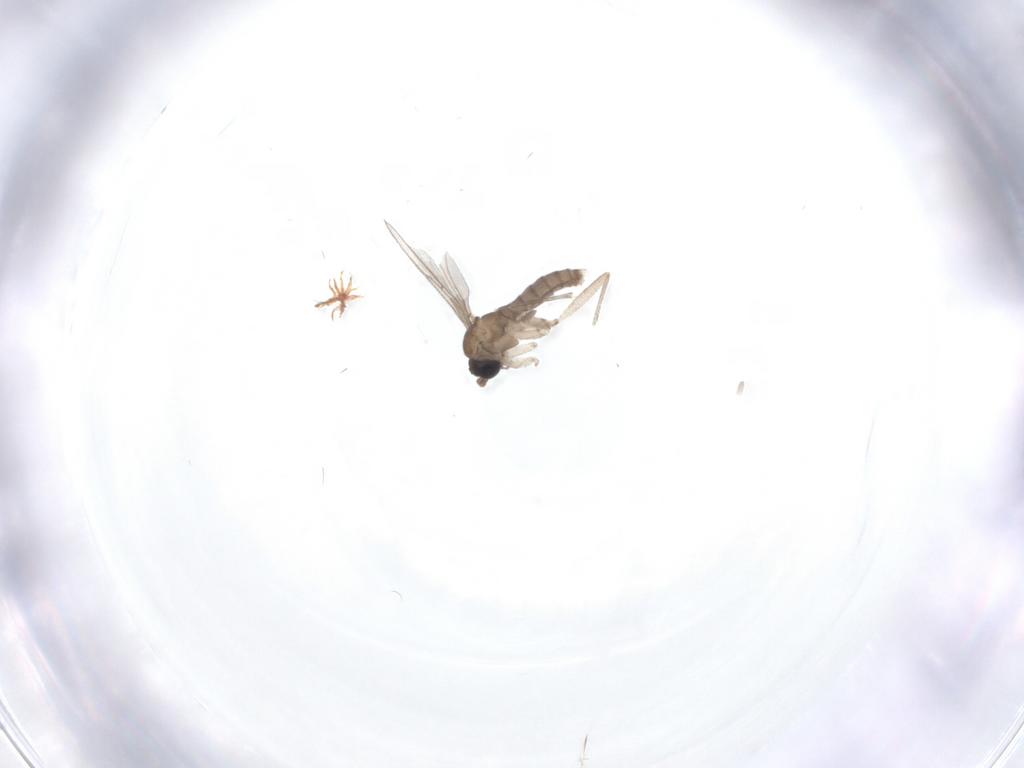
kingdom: Animalia
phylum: Arthropoda
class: Insecta
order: Diptera
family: Sciaridae
